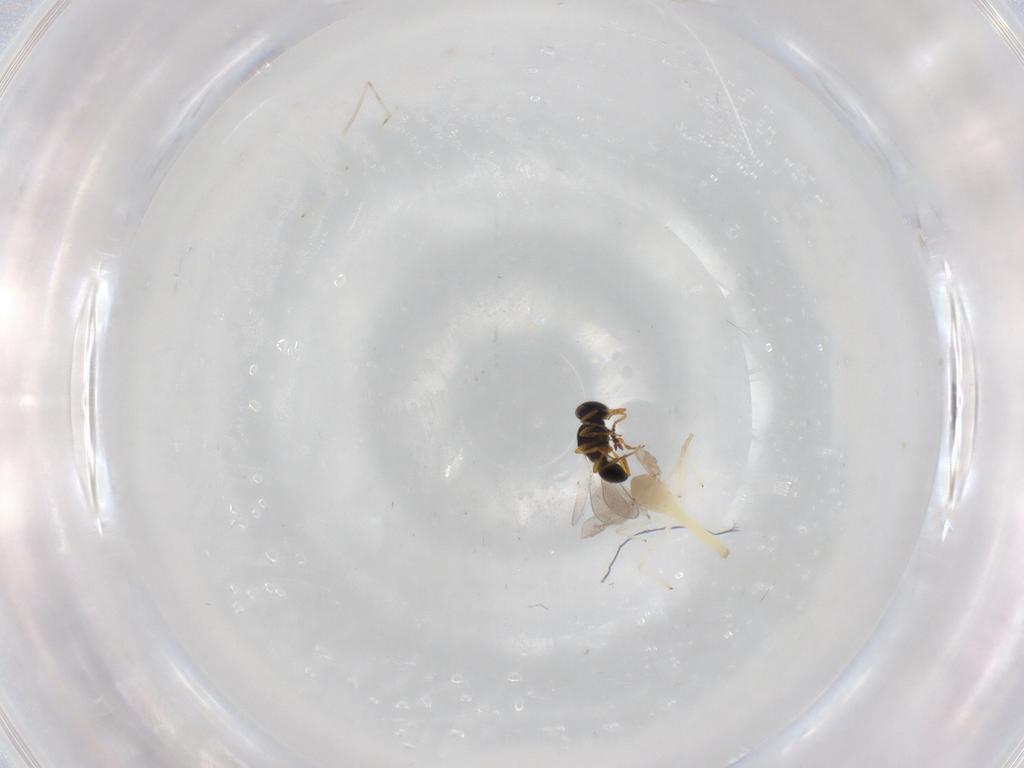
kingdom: Animalia
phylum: Arthropoda
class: Insecta
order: Diptera
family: Chironomidae
